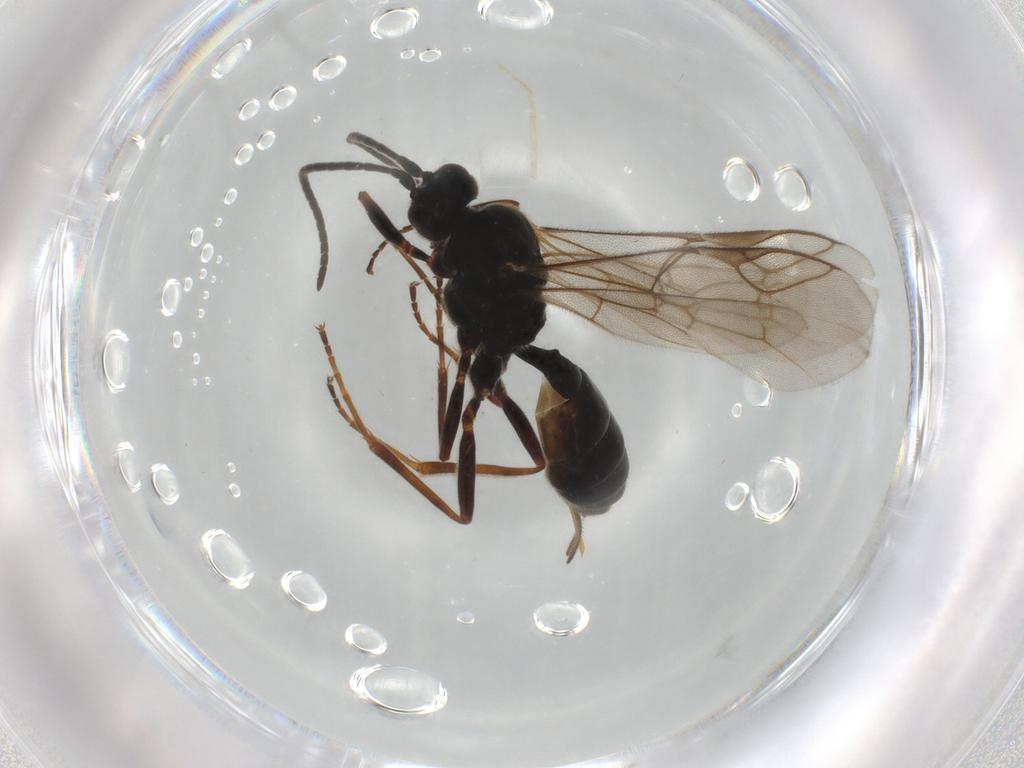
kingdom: Animalia
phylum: Arthropoda
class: Insecta
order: Hymenoptera
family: Ichneumonidae
